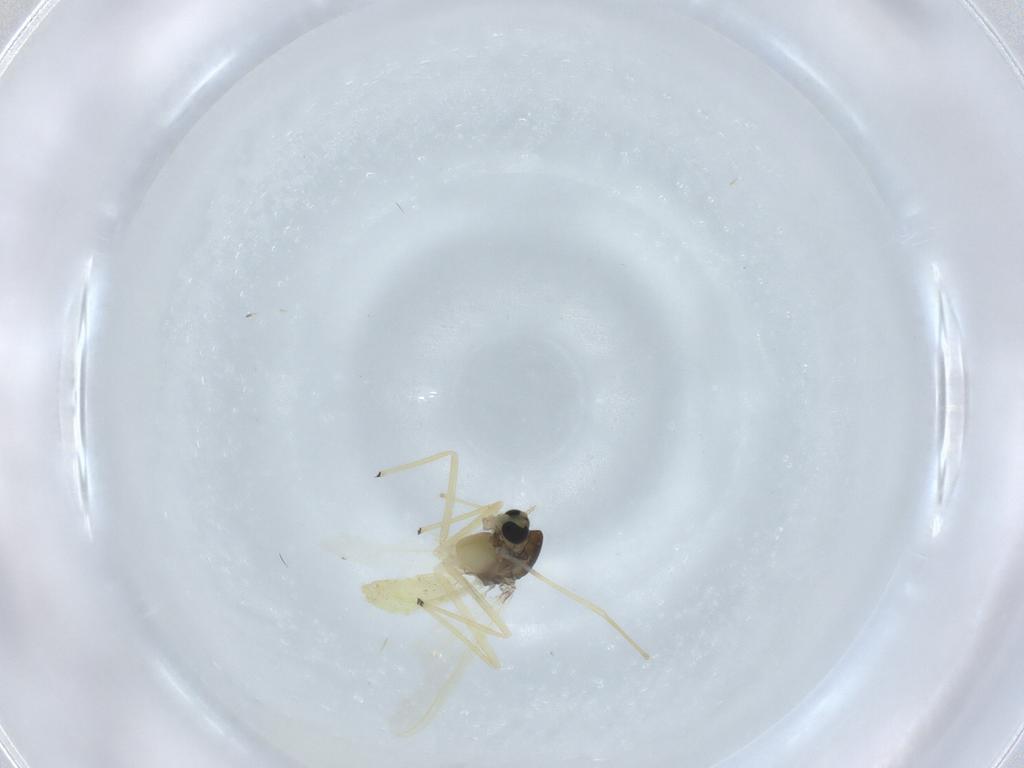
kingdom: Animalia
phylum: Arthropoda
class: Insecta
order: Diptera
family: Chironomidae
